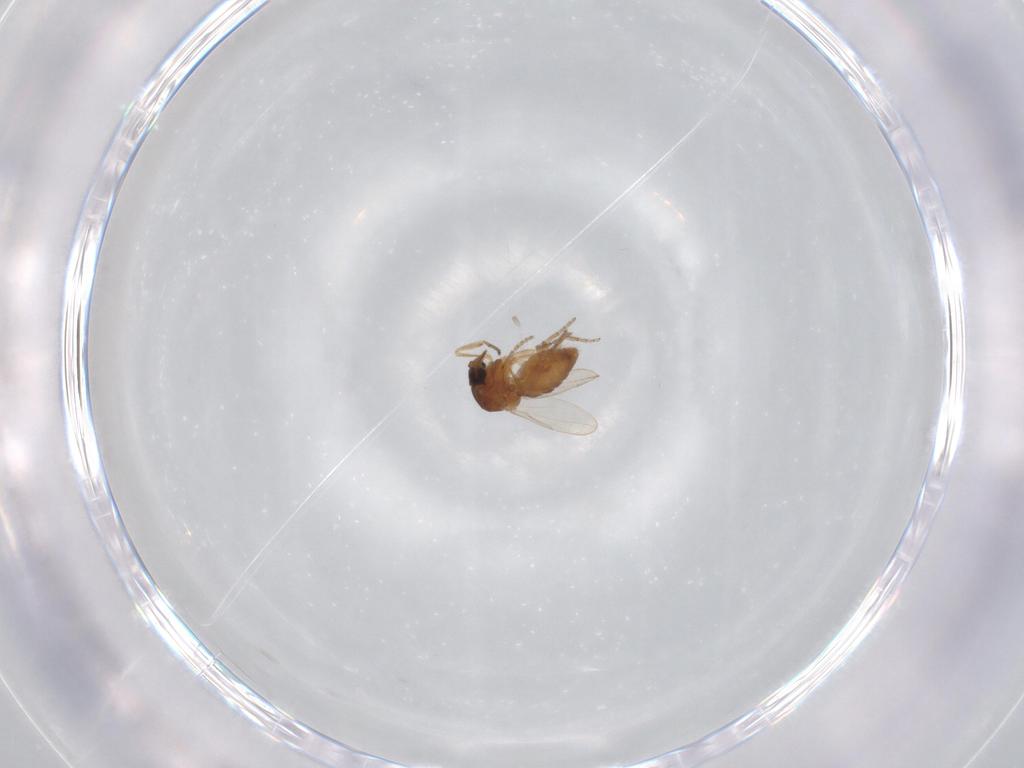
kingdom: Animalia
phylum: Arthropoda
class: Insecta
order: Diptera
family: Ceratopogonidae
